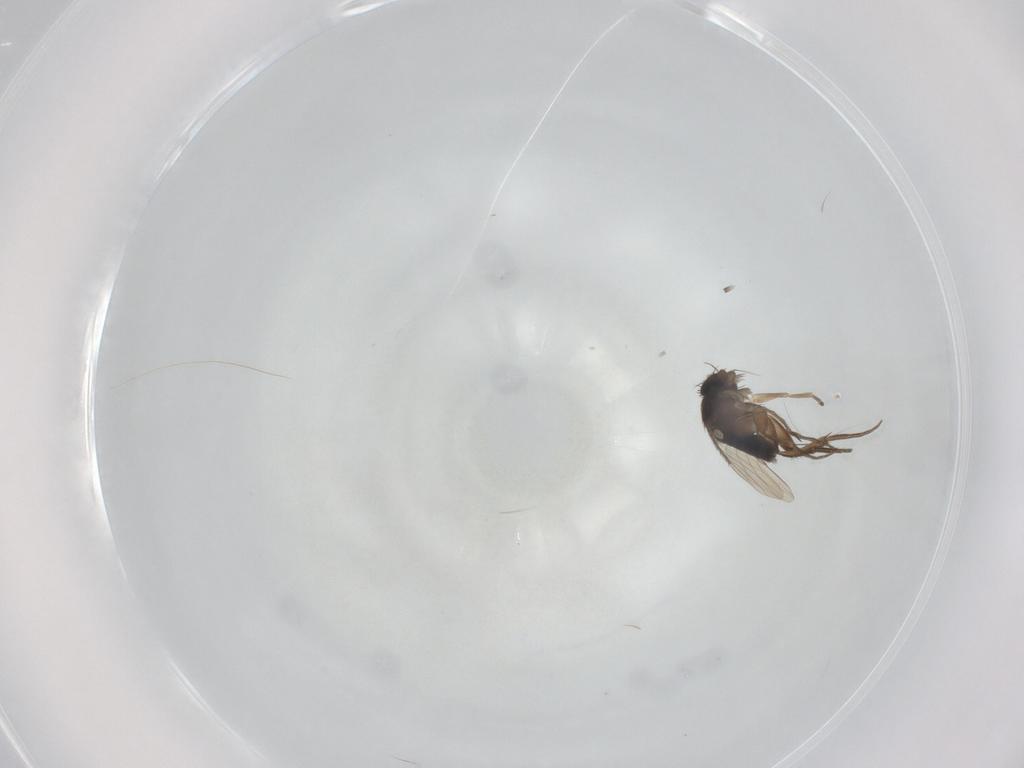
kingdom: Animalia
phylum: Arthropoda
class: Insecta
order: Diptera
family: Phoridae
